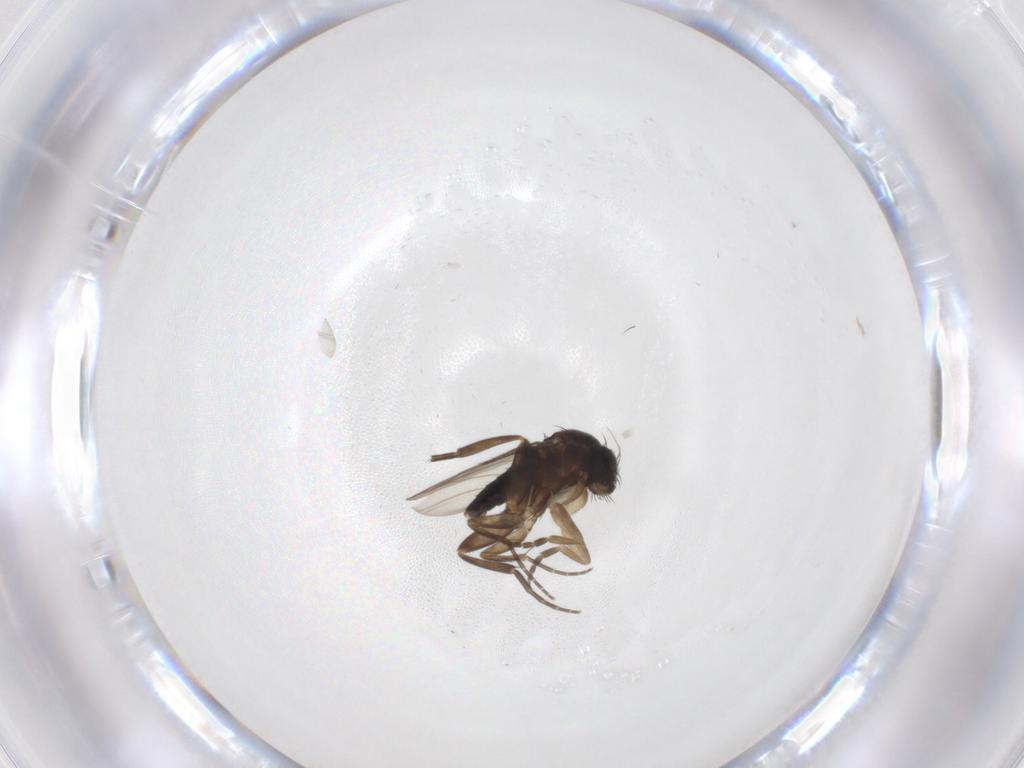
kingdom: Animalia
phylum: Arthropoda
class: Insecta
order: Diptera
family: Phoridae
